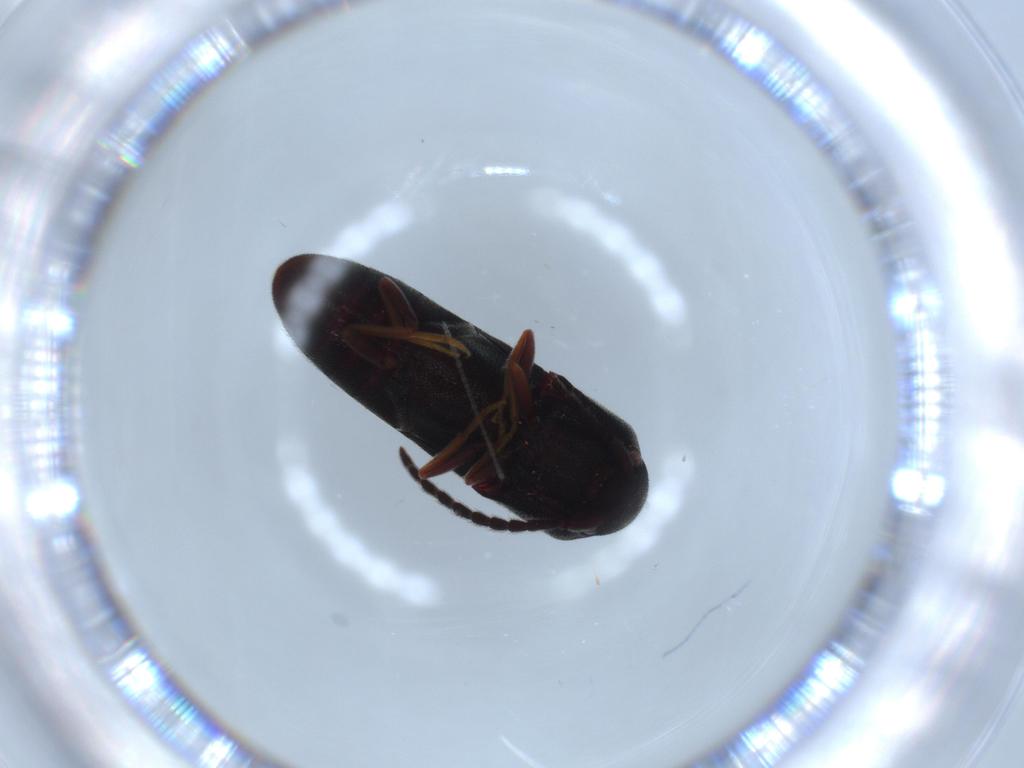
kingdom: Animalia
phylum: Arthropoda
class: Insecta
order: Coleoptera
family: Eucnemidae
